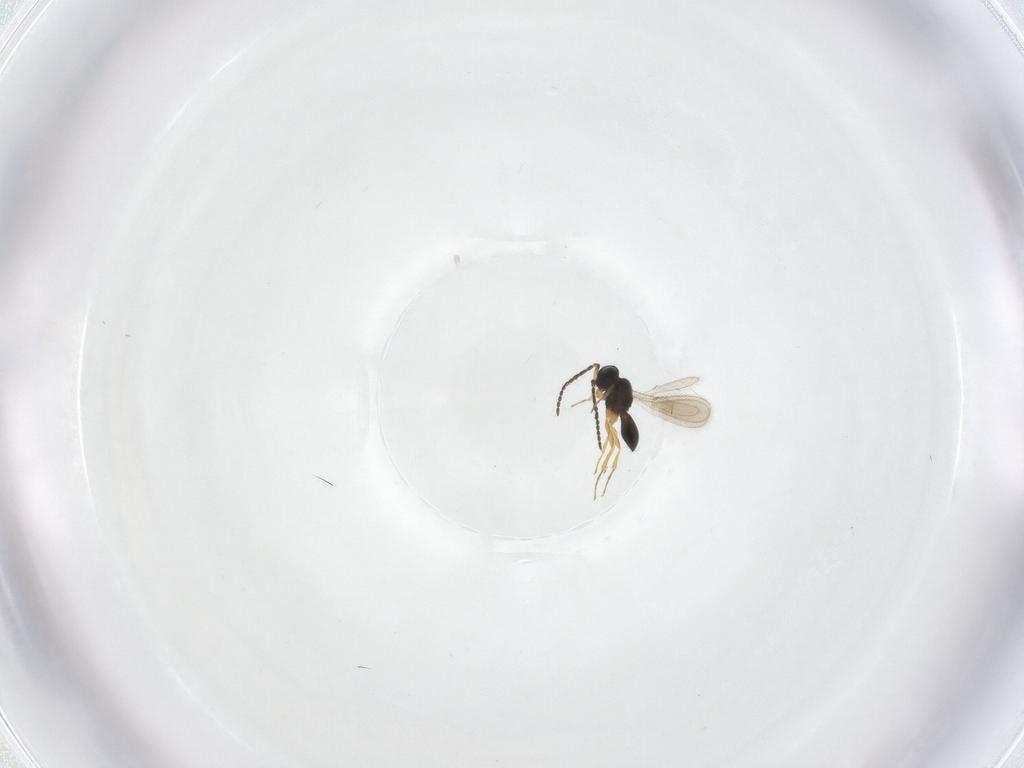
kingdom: Animalia
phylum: Arthropoda
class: Insecta
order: Hymenoptera
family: Scelionidae
